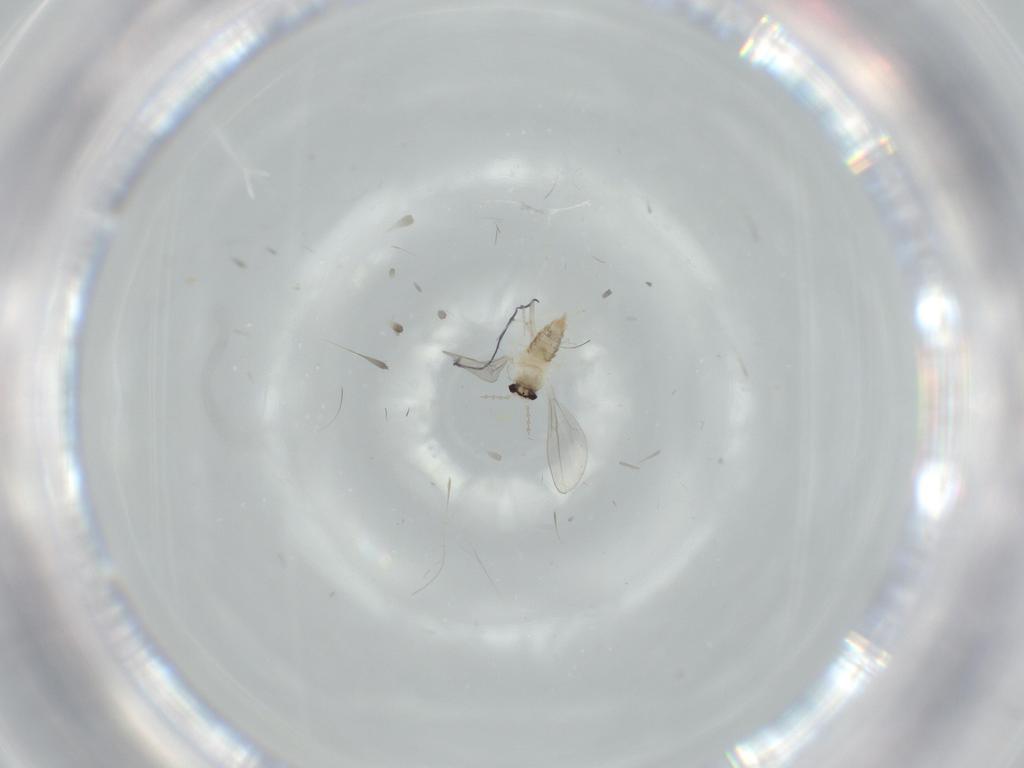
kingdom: Animalia
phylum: Arthropoda
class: Insecta
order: Diptera
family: Cecidomyiidae
